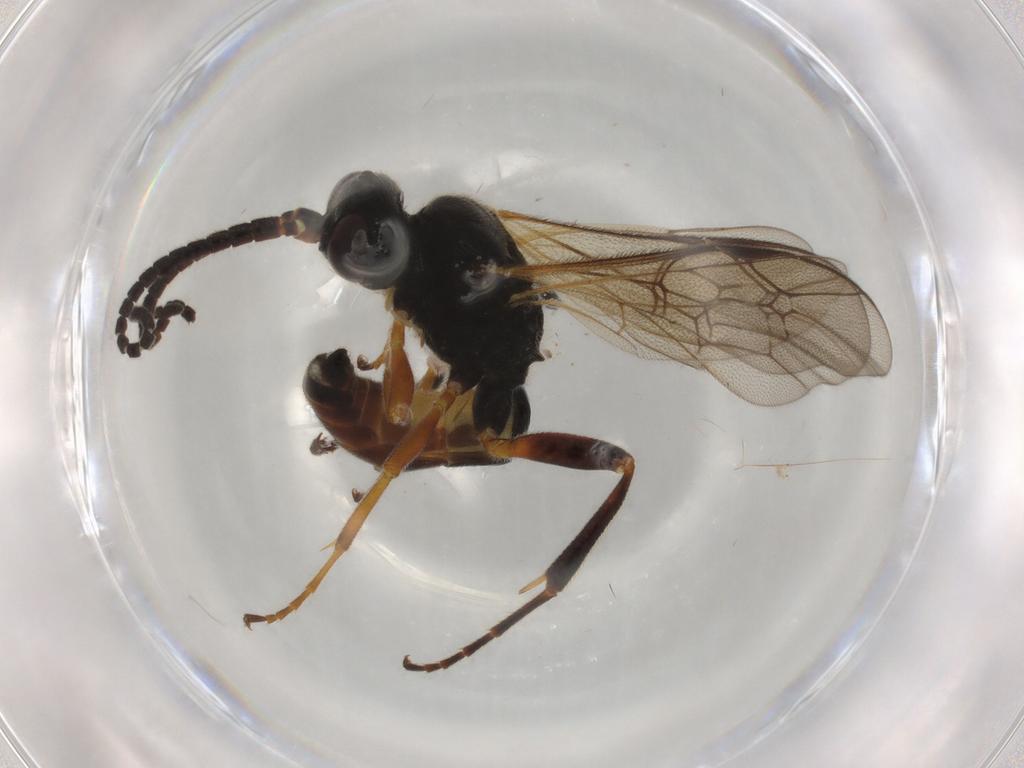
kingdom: Animalia
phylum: Arthropoda
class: Insecta
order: Hymenoptera
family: Ichneumonidae
